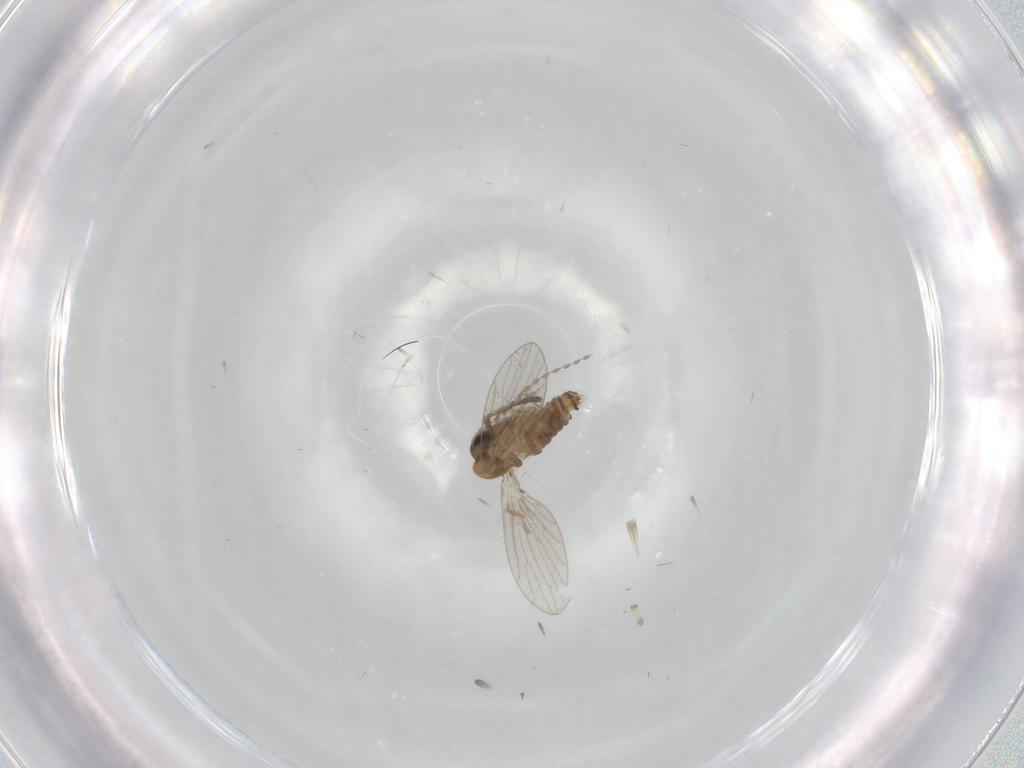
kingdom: Animalia
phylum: Arthropoda
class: Insecta
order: Diptera
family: Psychodidae
